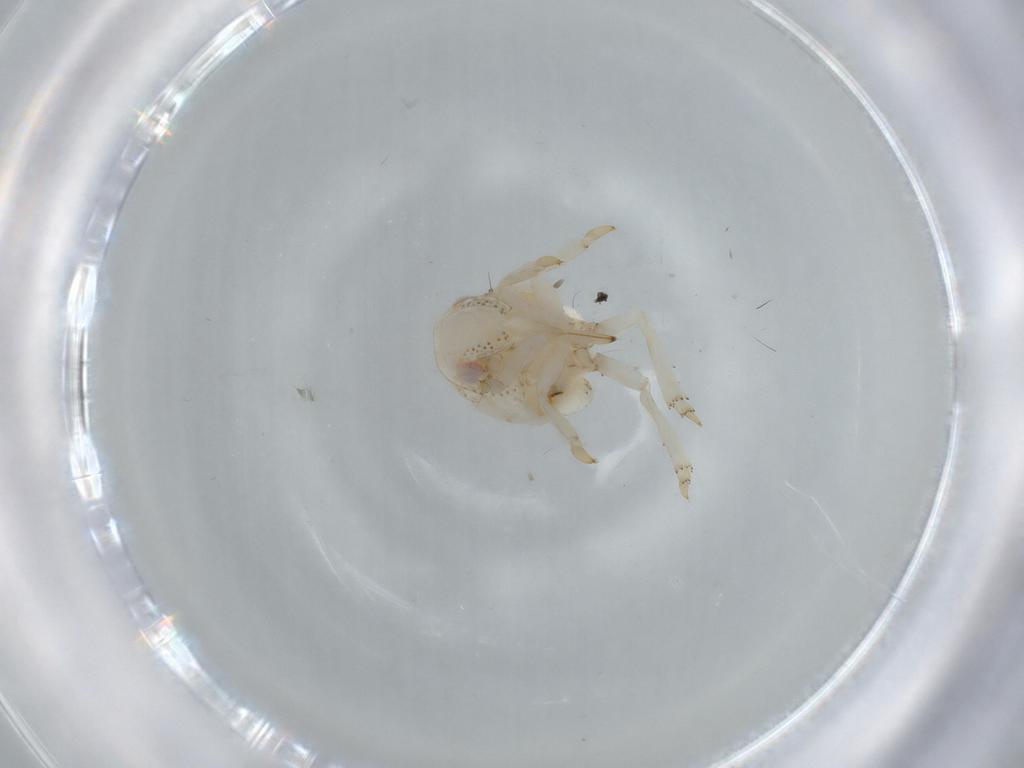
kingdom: Animalia
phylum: Arthropoda
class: Insecta
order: Hemiptera
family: Acanaloniidae
